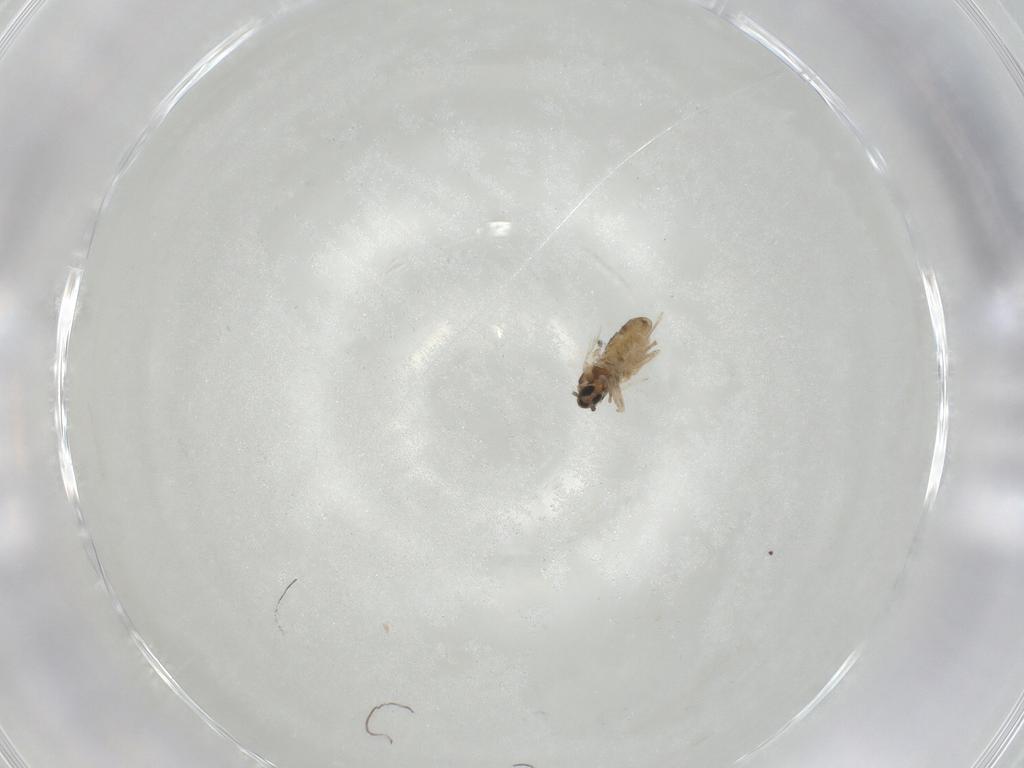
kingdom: Animalia
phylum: Arthropoda
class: Insecta
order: Diptera
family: Cecidomyiidae
